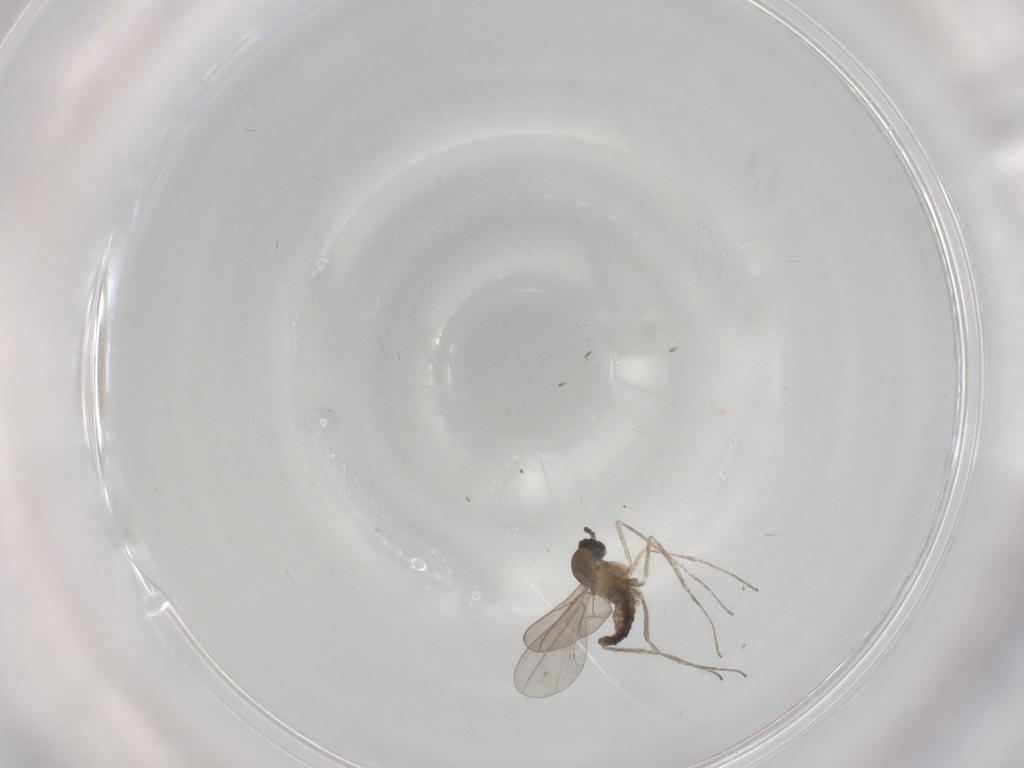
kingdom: Animalia
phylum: Arthropoda
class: Insecta
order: Diptera
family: Cecidomyiidae
